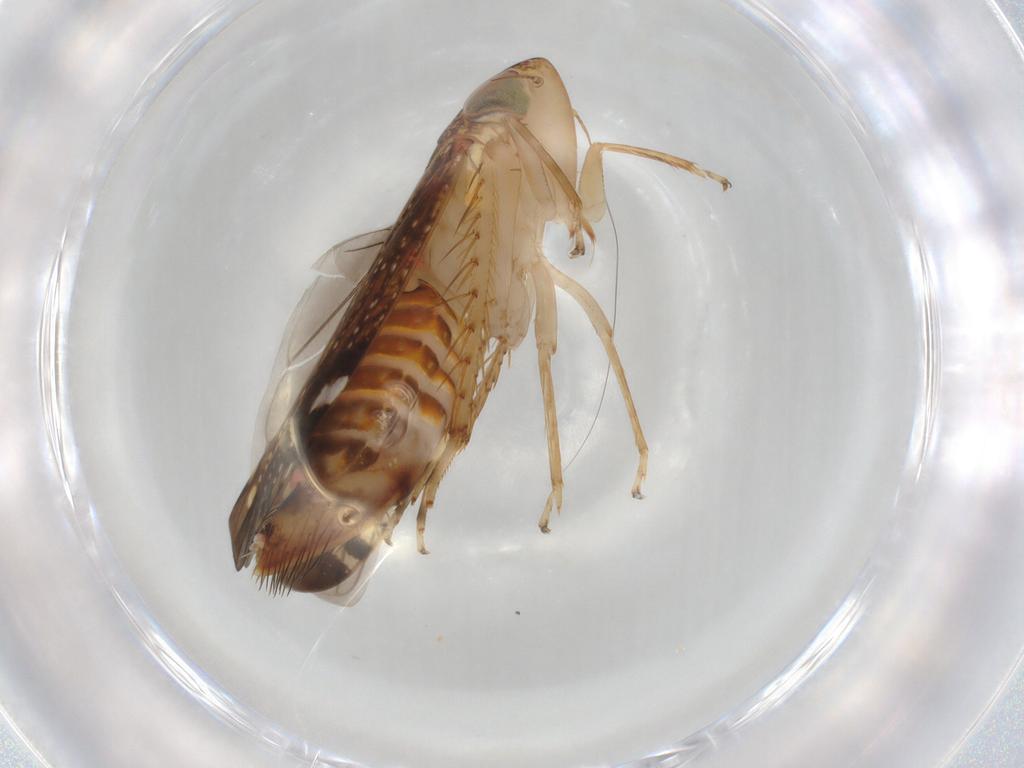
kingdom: Animalia
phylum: Arthropoda
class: Insecta
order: Hemiptera
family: Cicadellidae
